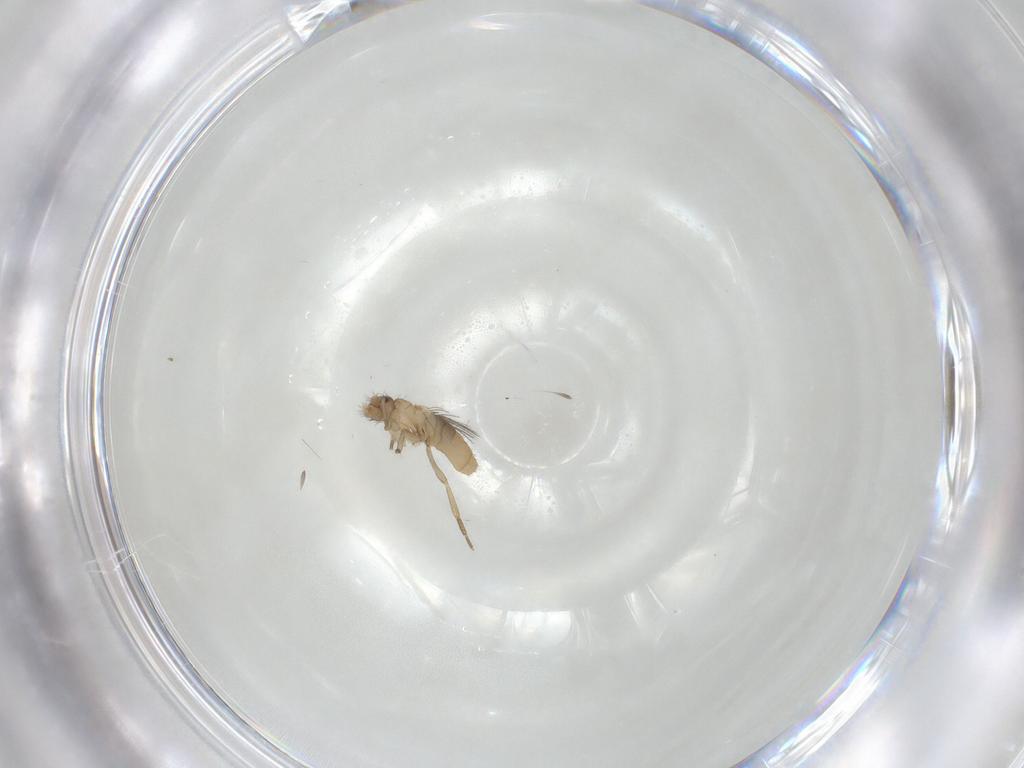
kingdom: Animalia
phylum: Arthropoda
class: Insecta
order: Diptera
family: Phoridae
